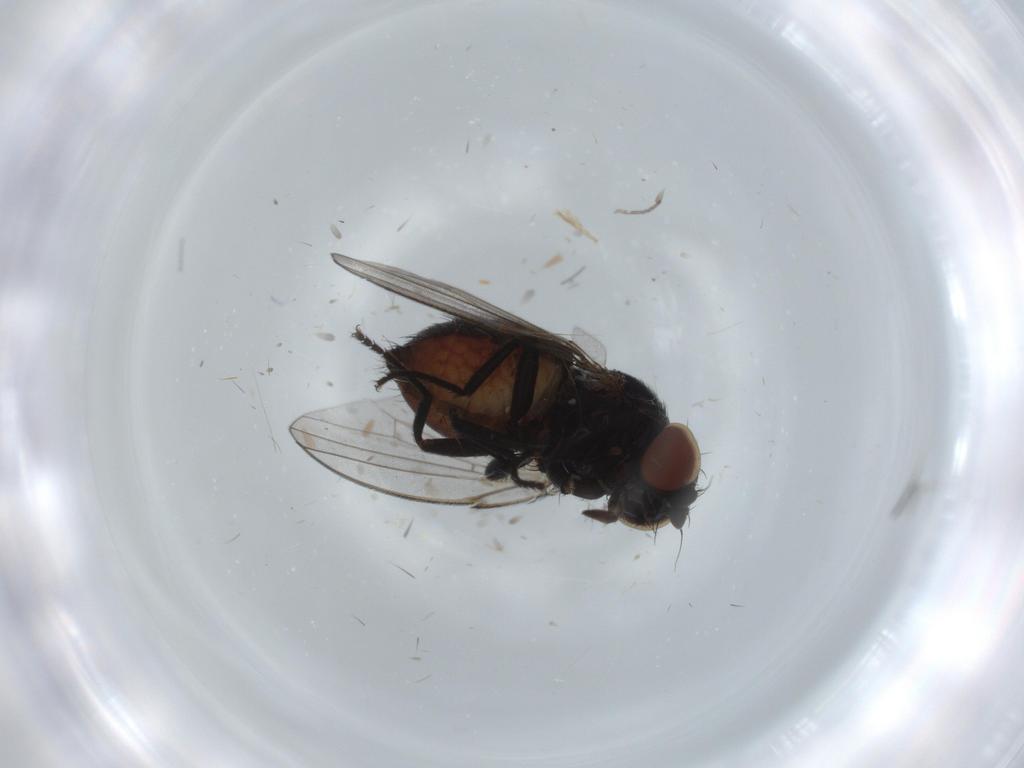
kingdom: Animalia
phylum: Arthropoda
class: Insecta
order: Diptera
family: Milichiidae
